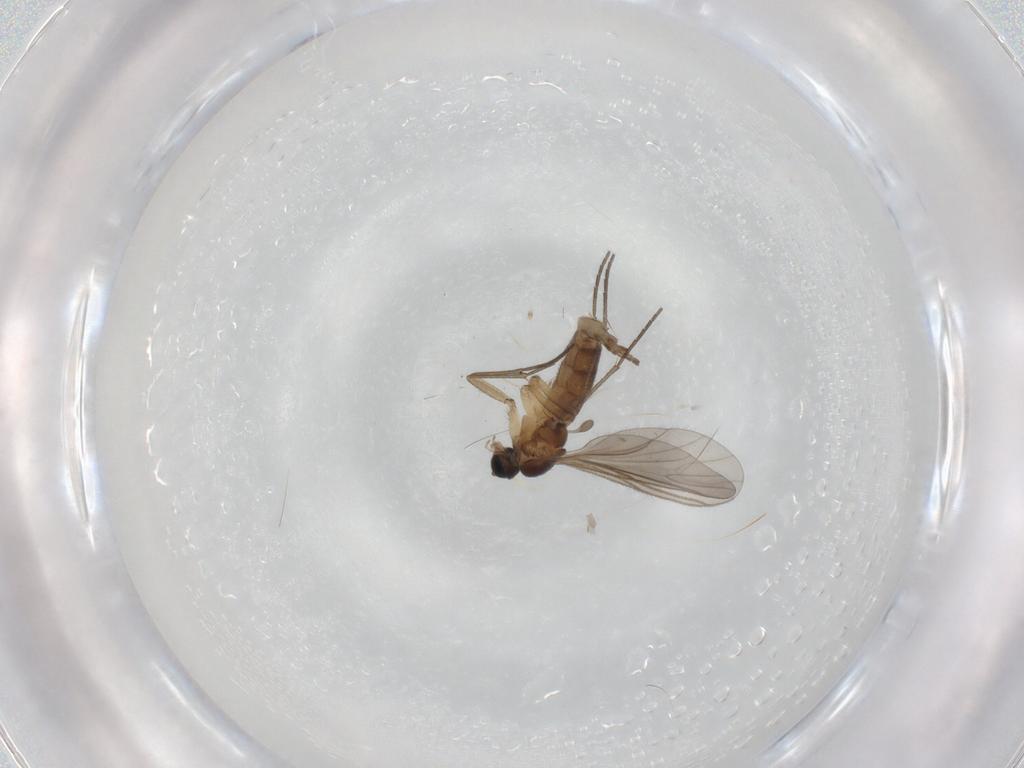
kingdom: Animalia
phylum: Arthropoda
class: Insecta
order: Diptera
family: Sciaridae
